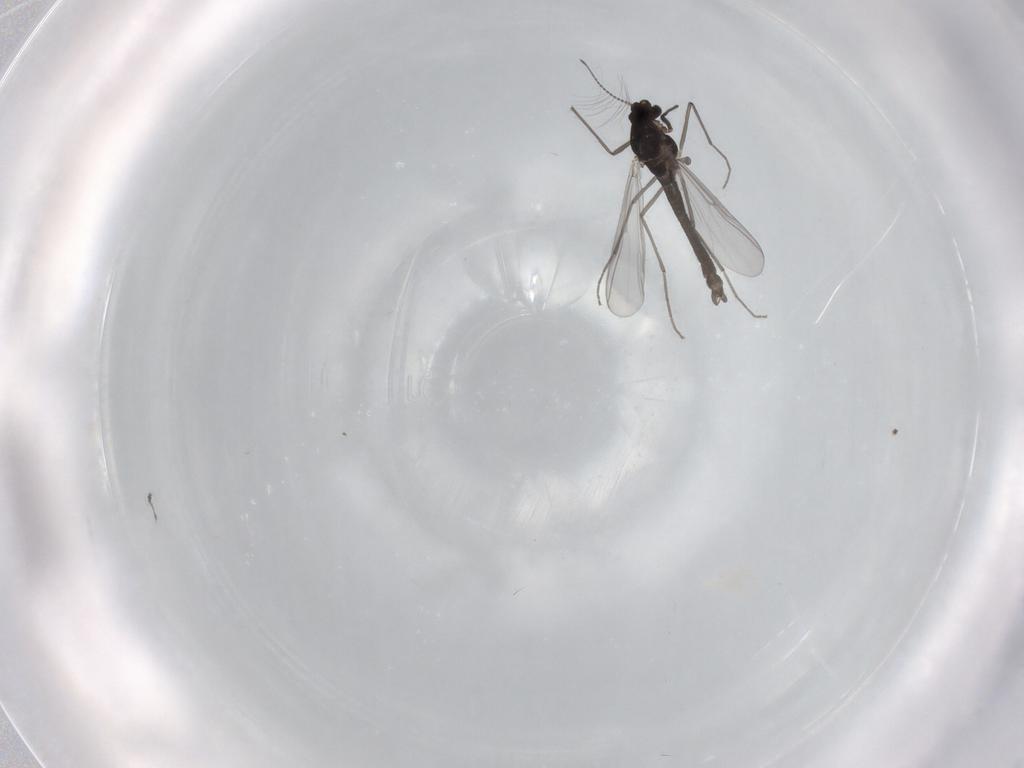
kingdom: Animalia
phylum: Arthropoda
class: Insecta
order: Diptera
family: Chironomidae
